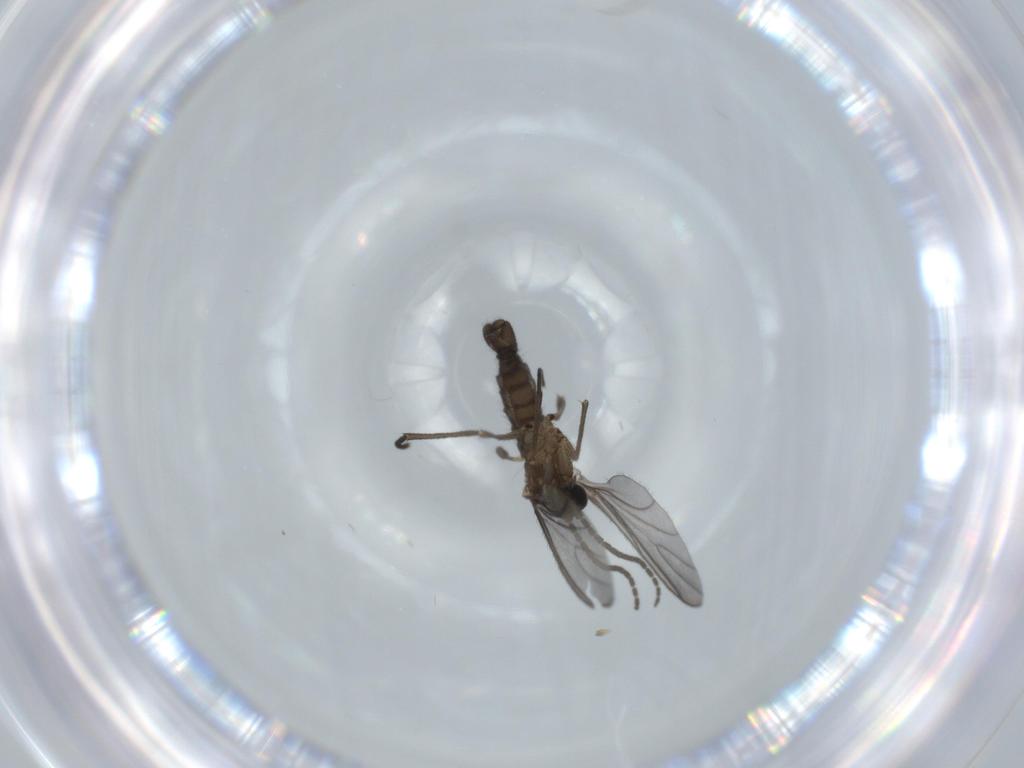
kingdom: Animalia
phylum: Arthropoda
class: Insecta
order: Diptera
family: Sciaridae
